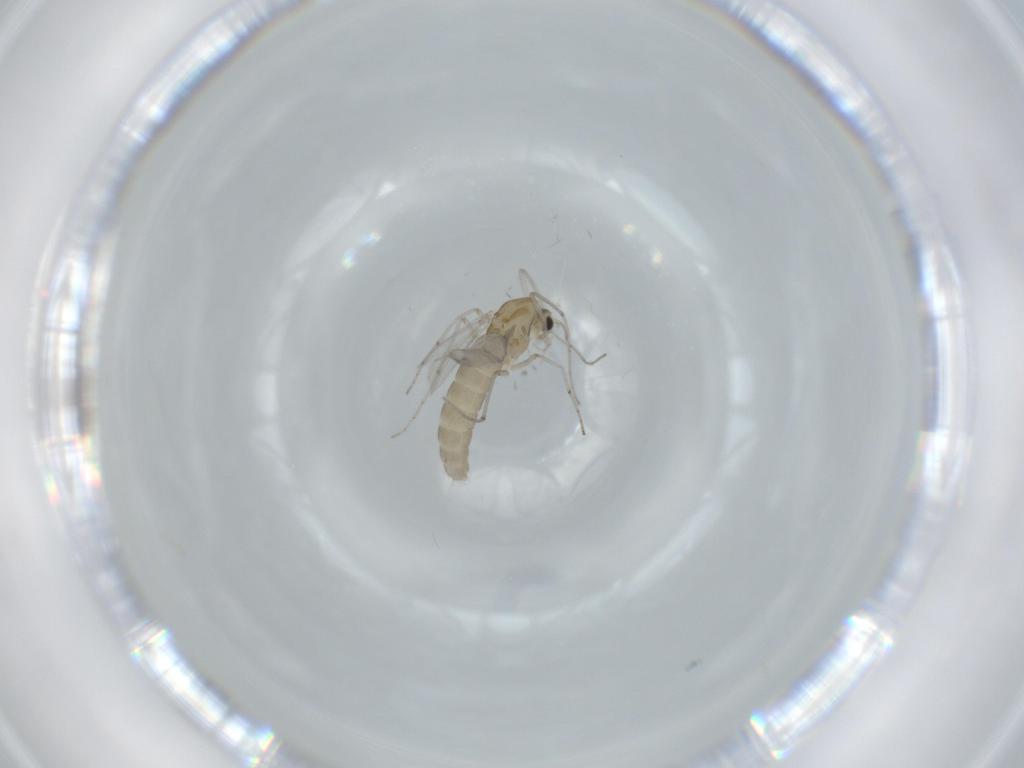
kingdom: Animalia
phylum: Arthropoda
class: Insecta
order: Diptera
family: Chironomidae
